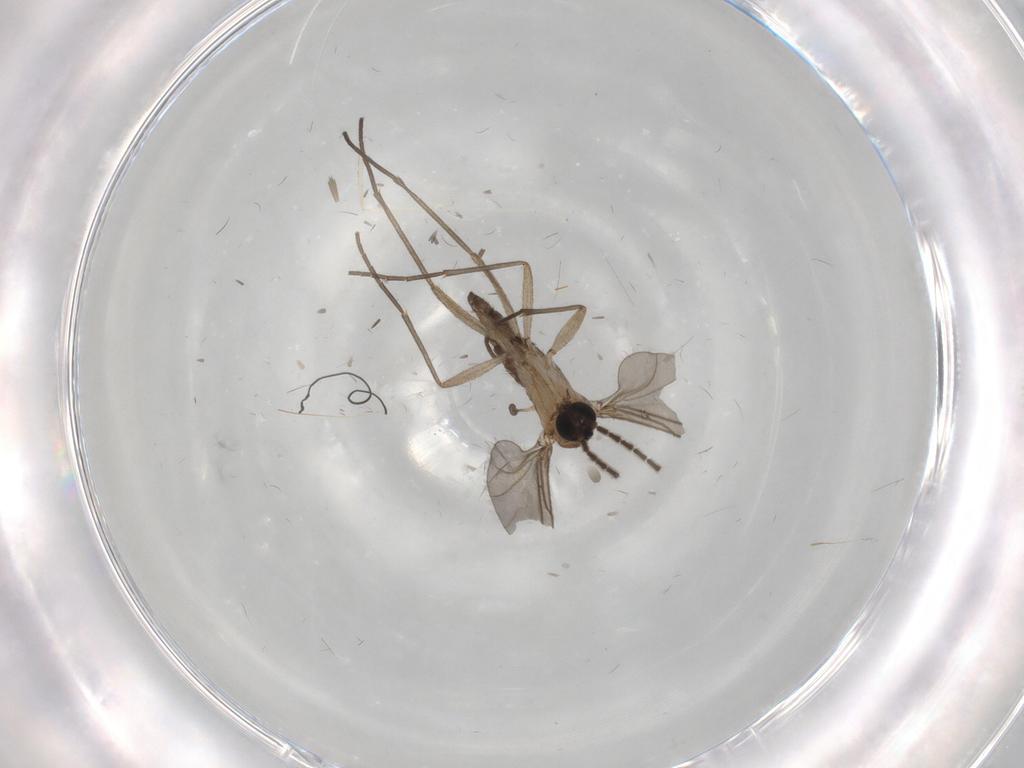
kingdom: Animalia
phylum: Arthropoda
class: Insecta
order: Diptera
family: Cecidomyiidae
